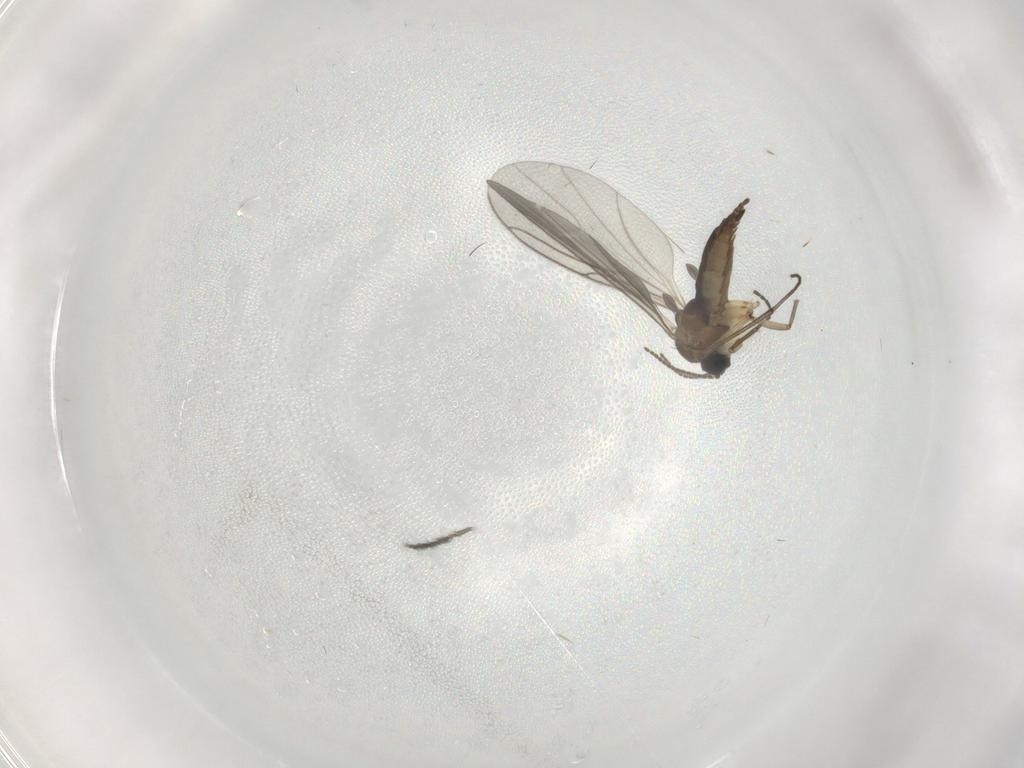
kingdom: Animalia
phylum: Arthropoda
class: Insecta
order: Diptera
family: Sciaridae
